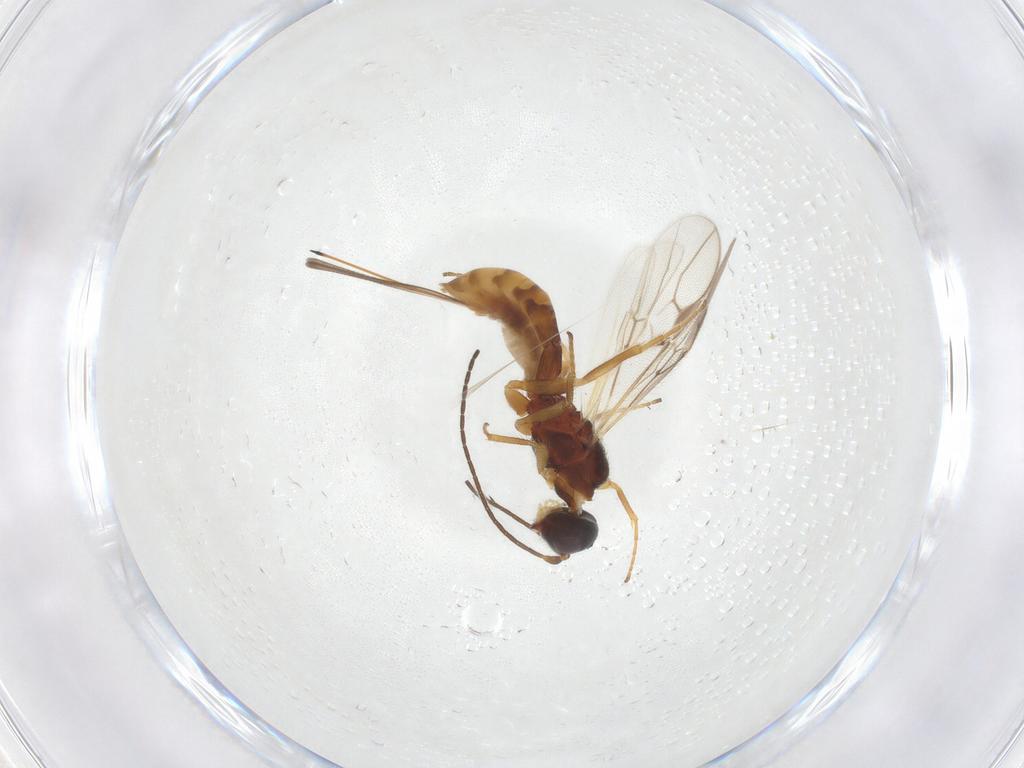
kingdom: Animalia
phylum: Arthropoda
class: Insecta
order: Hymenoptera
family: Braconidae
